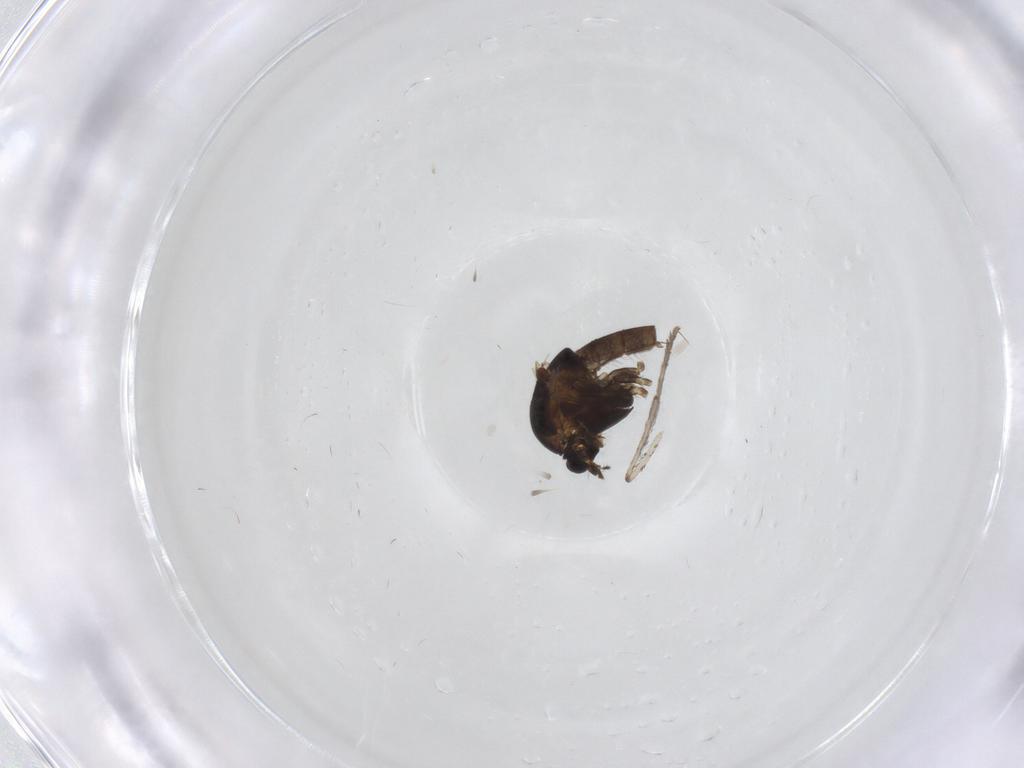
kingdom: Animalia
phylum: Arthropoda
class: Insecta
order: Diptera
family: Chironomidae
